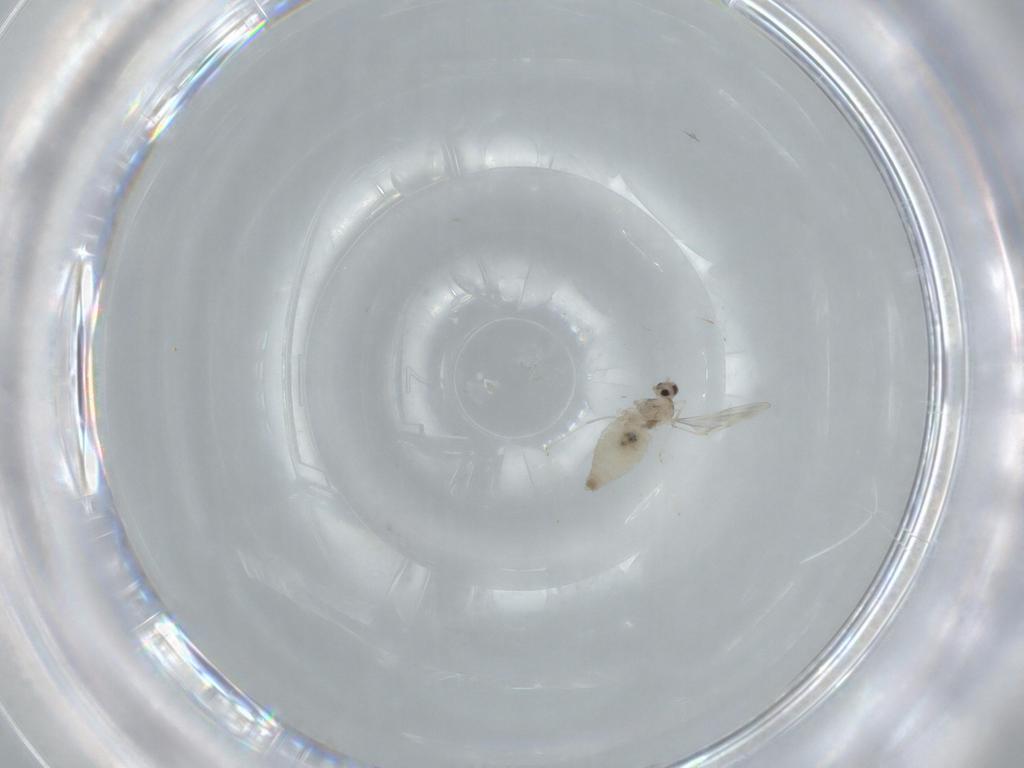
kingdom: Animalia
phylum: Arthropoda
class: Insecta
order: Diptera
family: Cecidomyiidae
